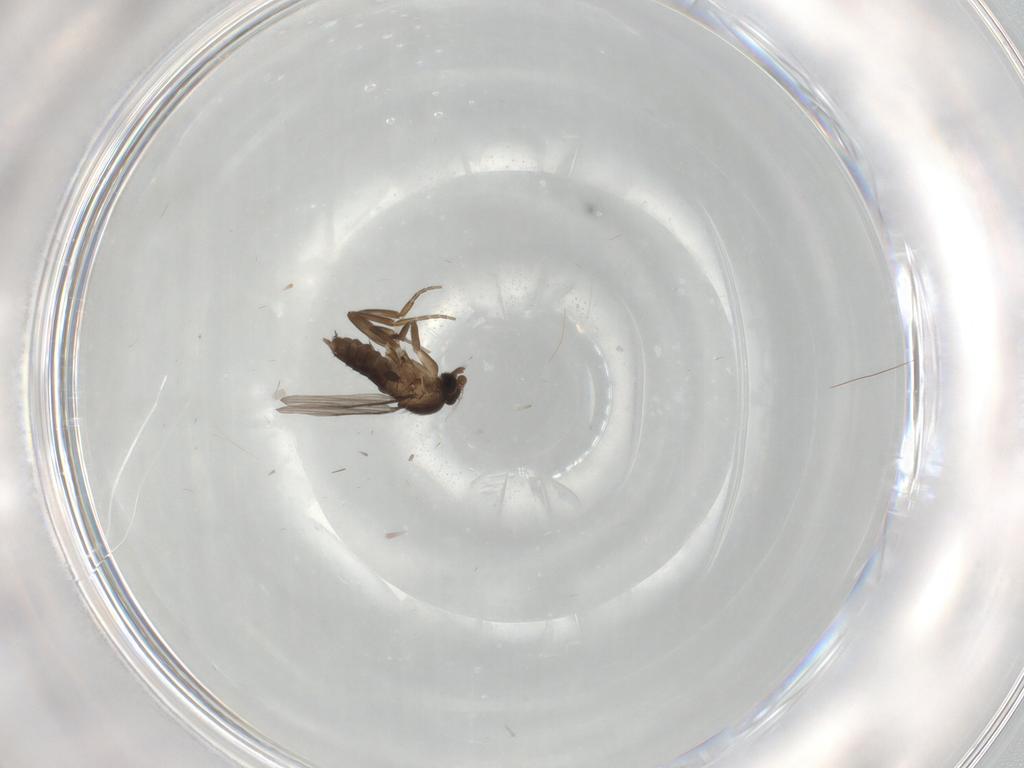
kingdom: Animalia
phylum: Arthropoda
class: Insecta
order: Diptera
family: Phoridae
